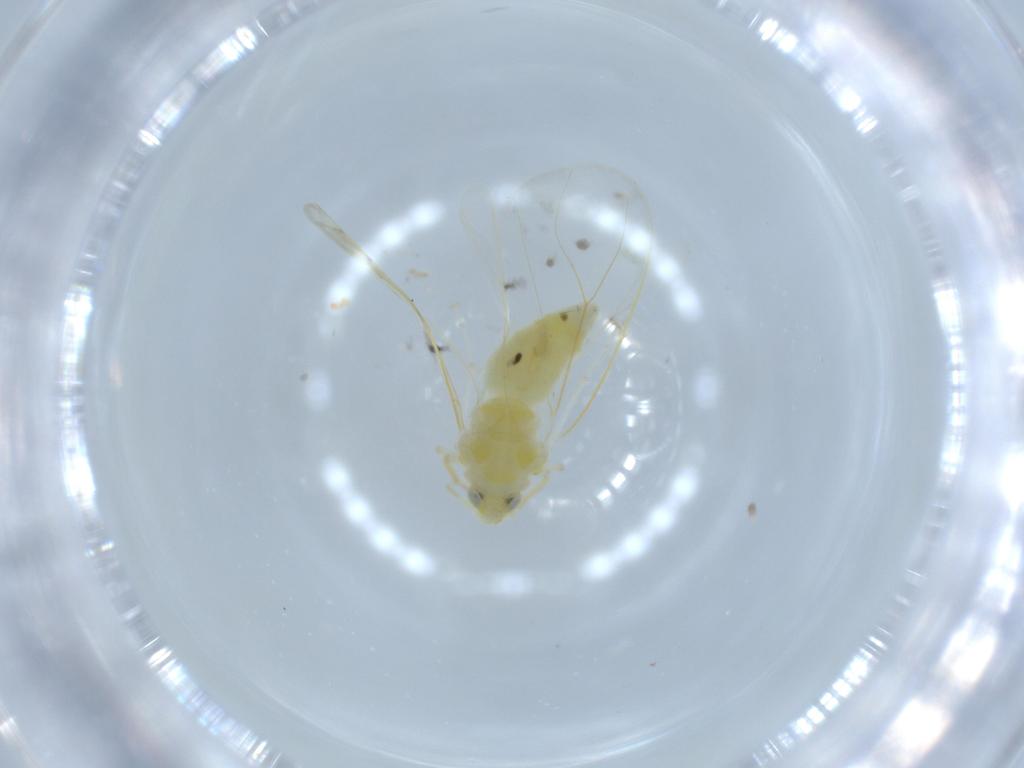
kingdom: Animalia
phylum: Arthropoda
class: Insecta
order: Hemiptera
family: Aleyrodidae
